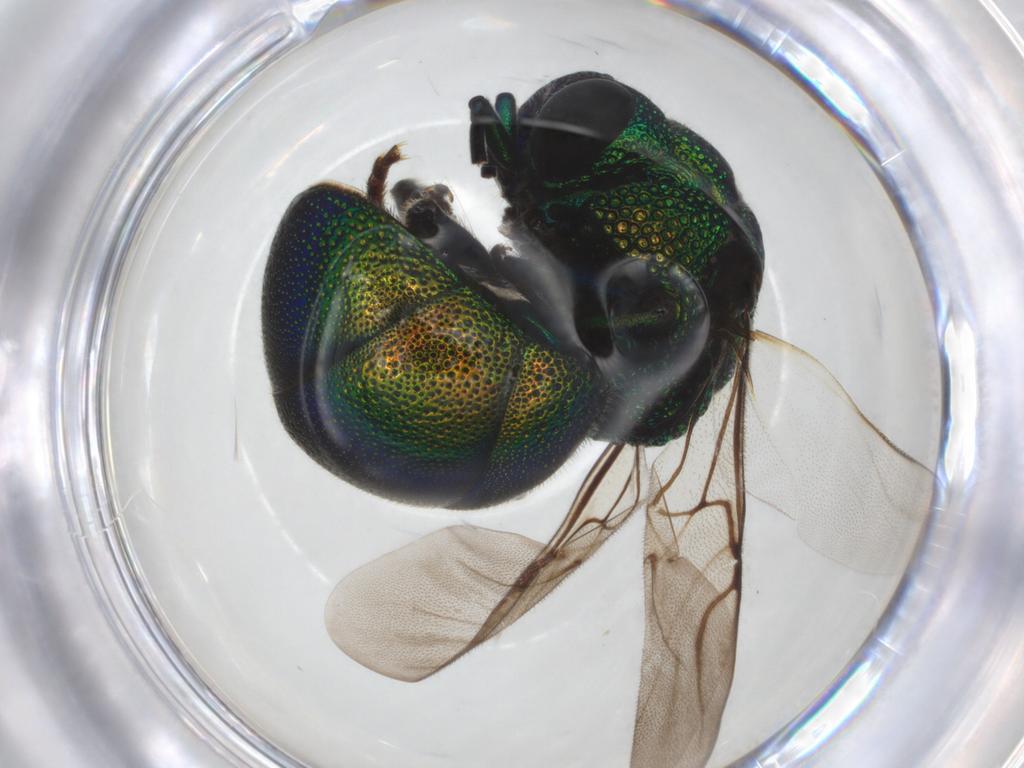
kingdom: Animalia
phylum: Arthropoda
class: Insecta
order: Hymenoptera
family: Chrysididae
